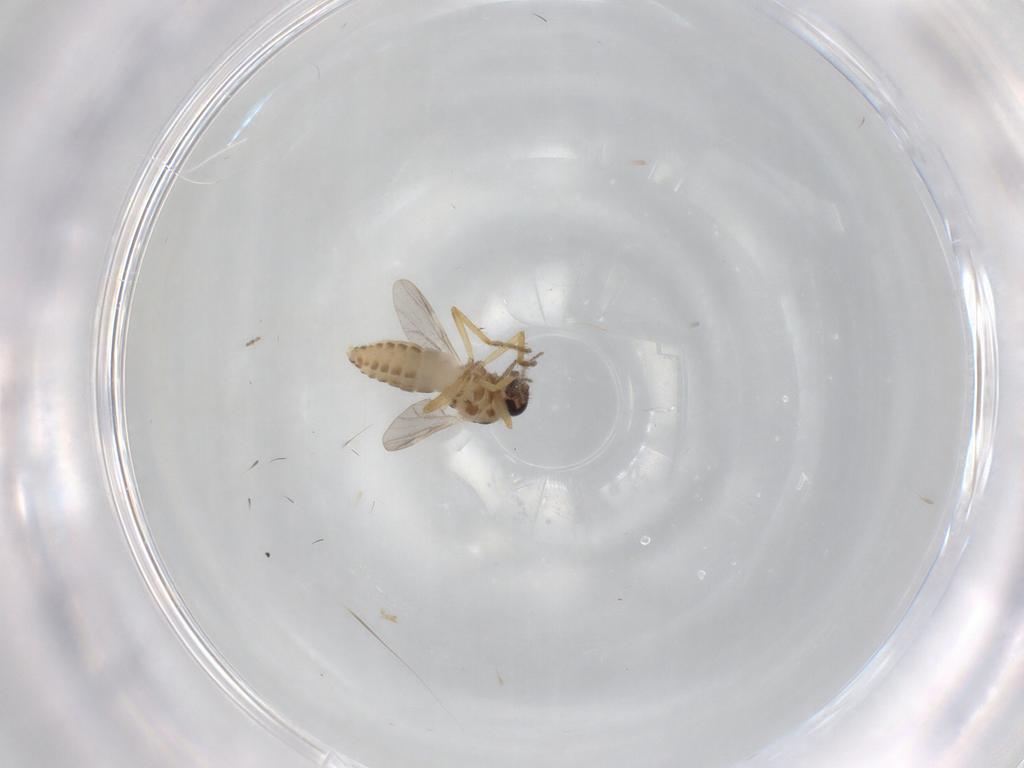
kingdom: Animalia
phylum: Arthropoda
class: Insecta
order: Diptera
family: Ceratopogonidae
